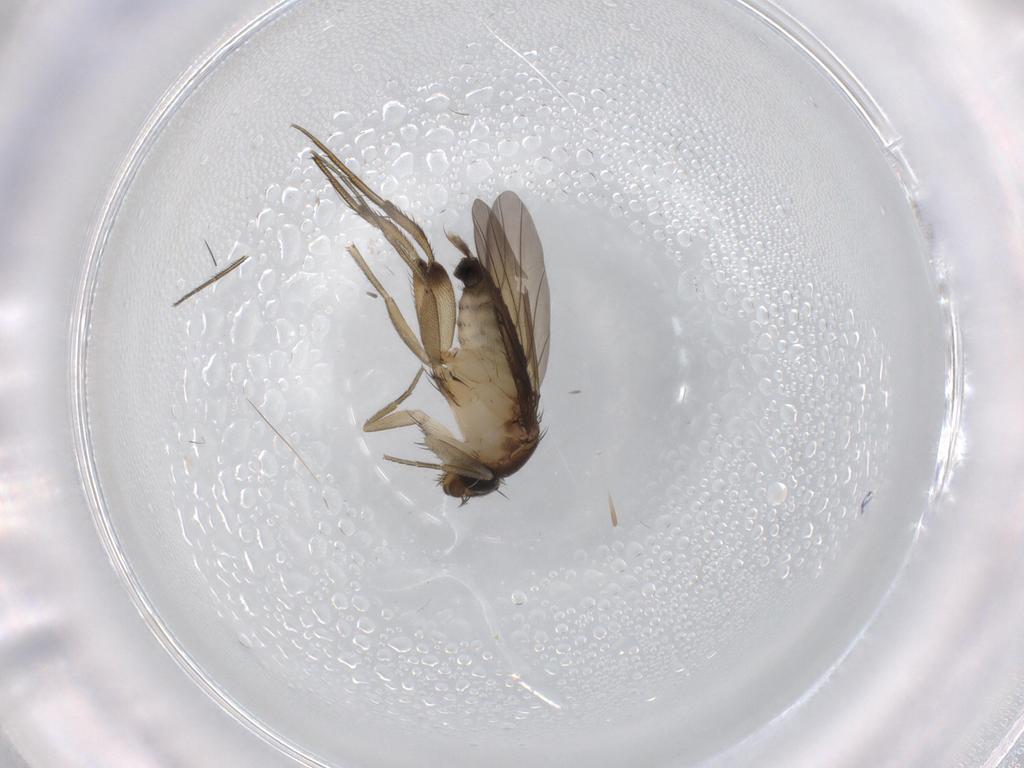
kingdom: Animalia
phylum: Arthropoda
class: Insecta
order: Diptera
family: Phoridae
